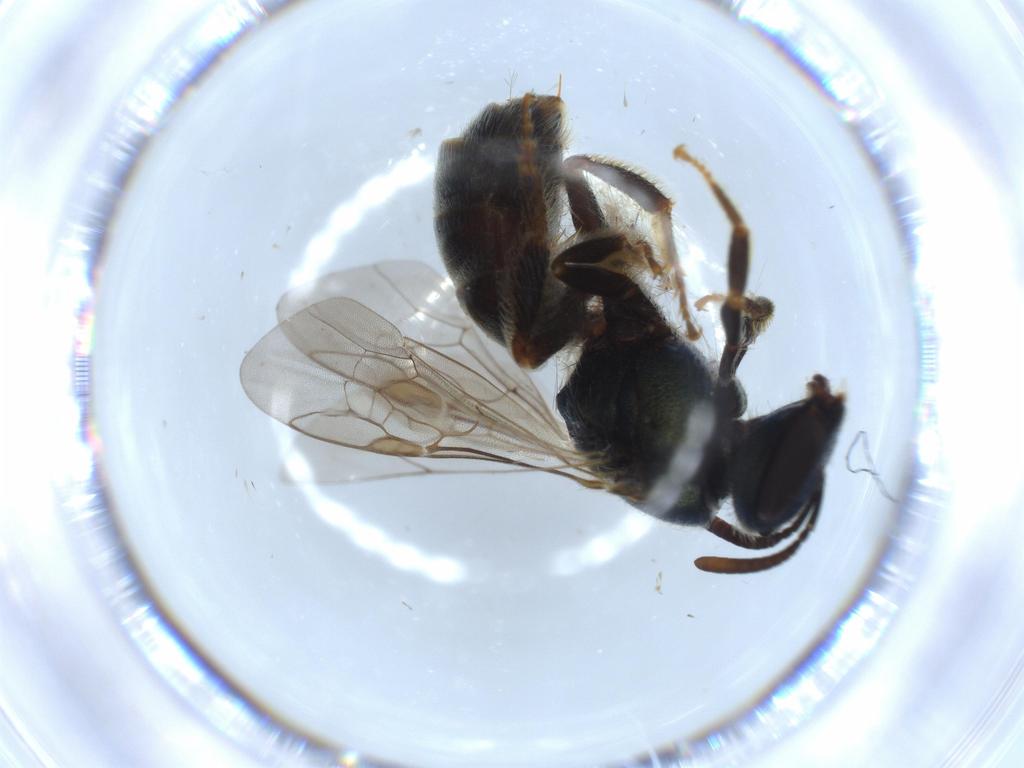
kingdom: Animalia
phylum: Arthropoda
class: Insecta
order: Hymenoptera
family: Halictidae
